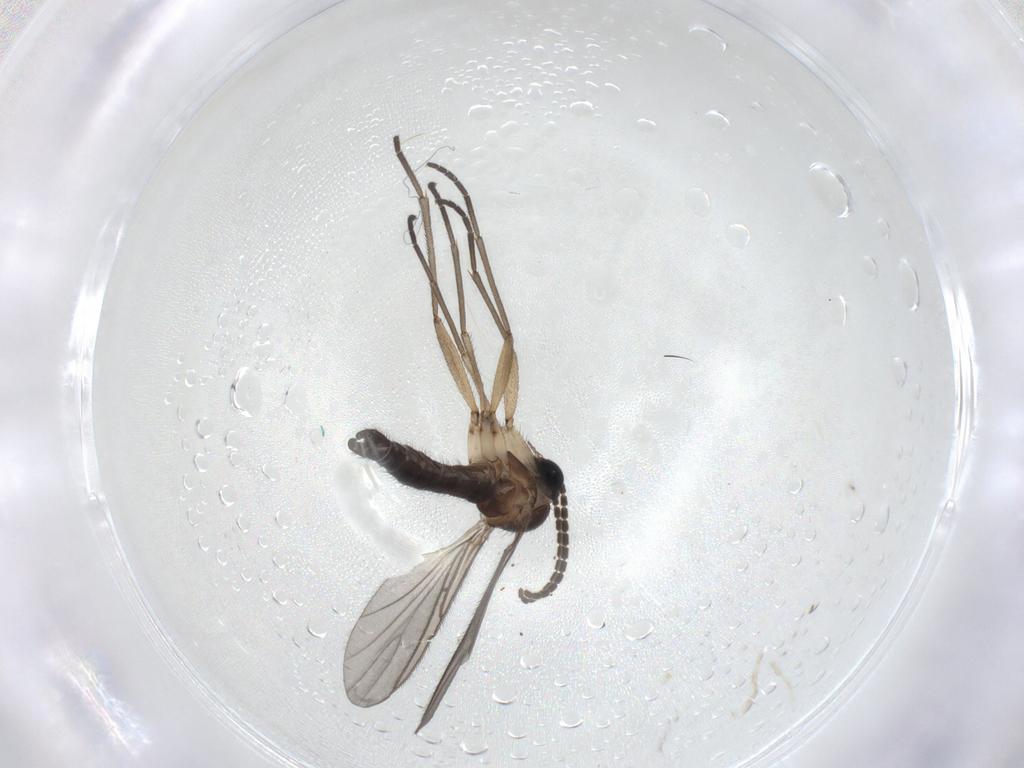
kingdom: Animalia
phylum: Arthropoda
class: Insecta
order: Diptera
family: Sciaridae
